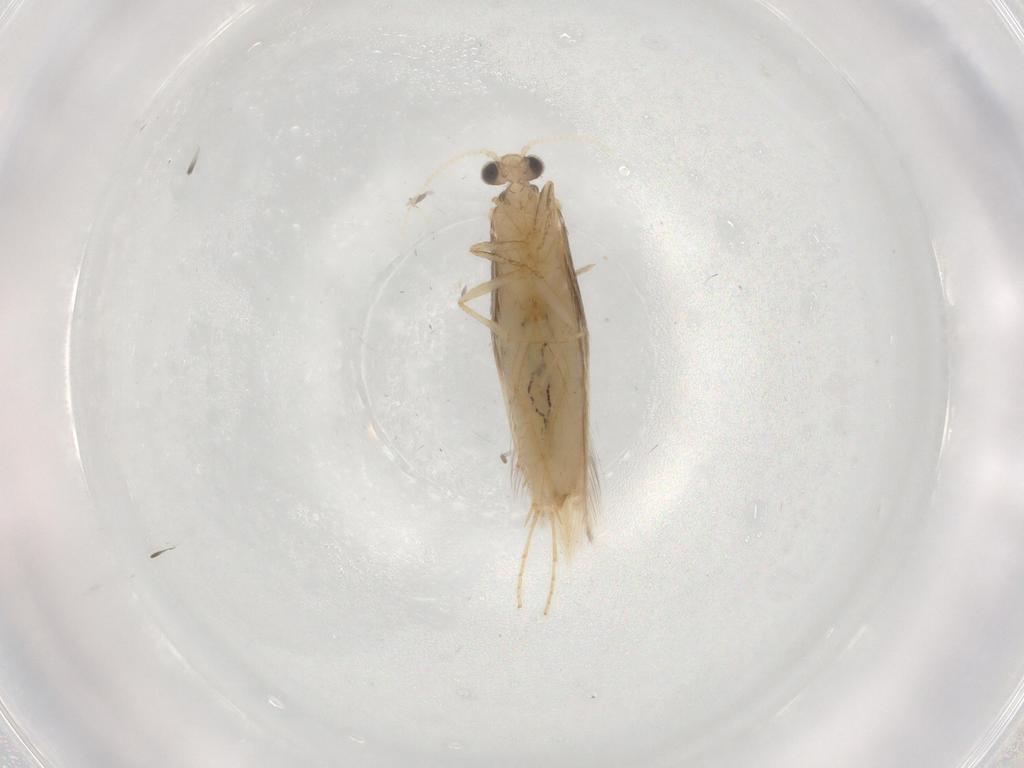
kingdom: Animalia
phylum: Arthropoda
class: Insecta
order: Trichoptera
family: Hydroptilidae
